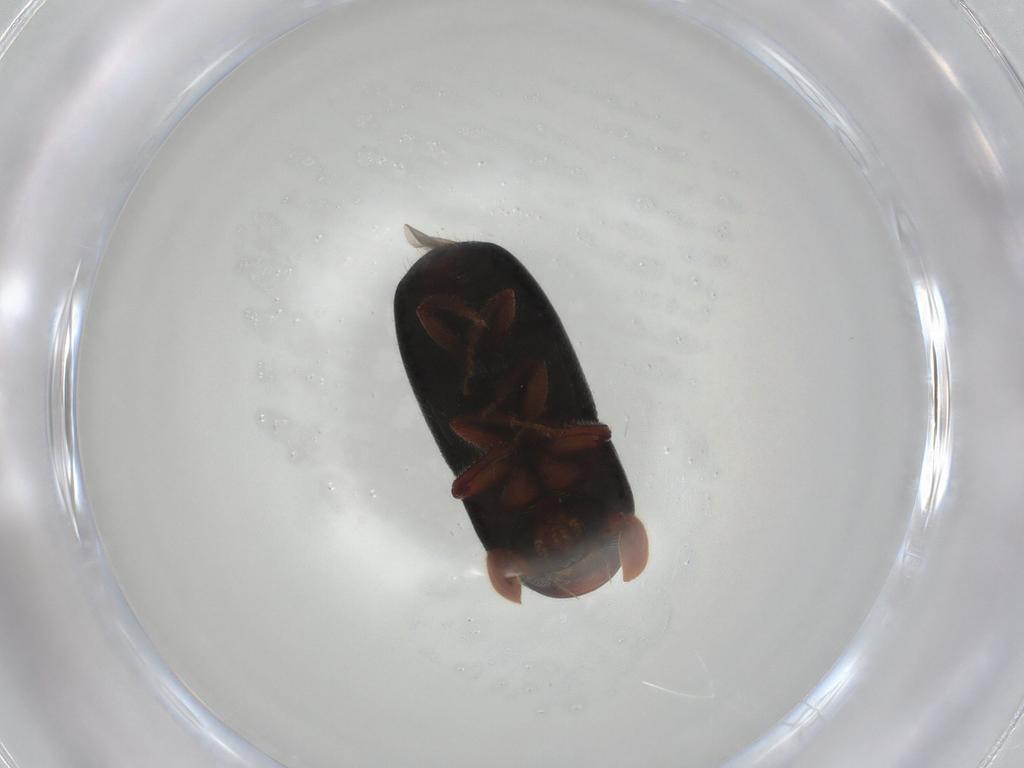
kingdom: Animalia
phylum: Arthropoda
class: Insecta
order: Coleoptera
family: Curculionidae
